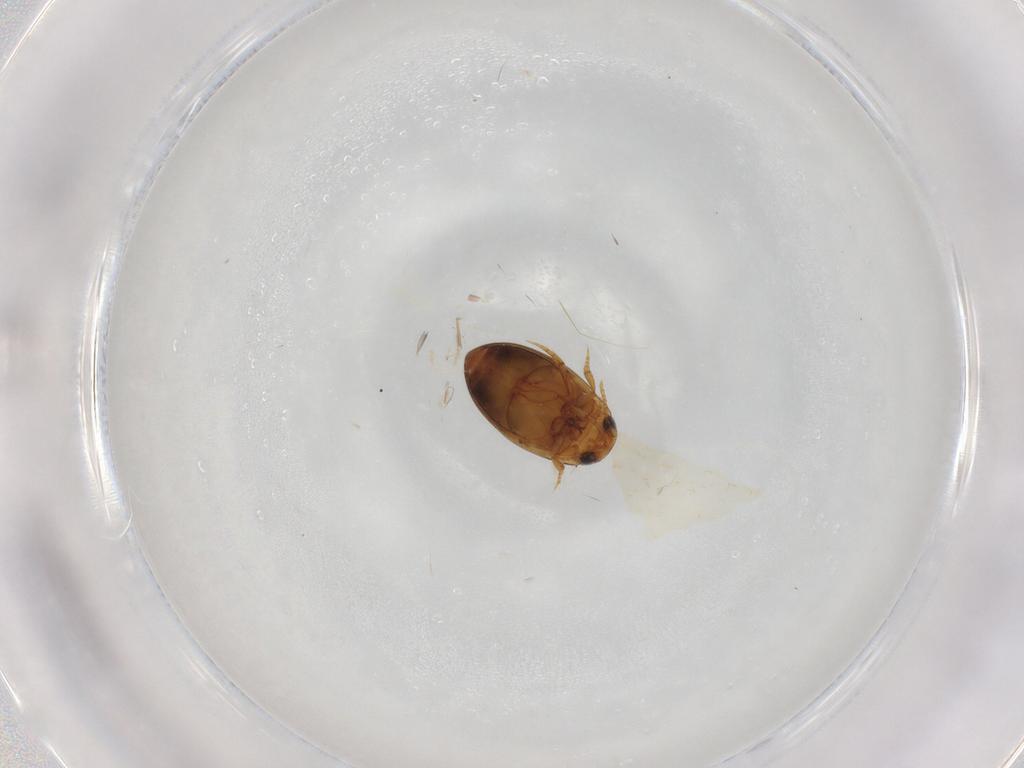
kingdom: Animalia
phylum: Arthropoda
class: Insecta
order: Coleoptera
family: Dytiscidae
